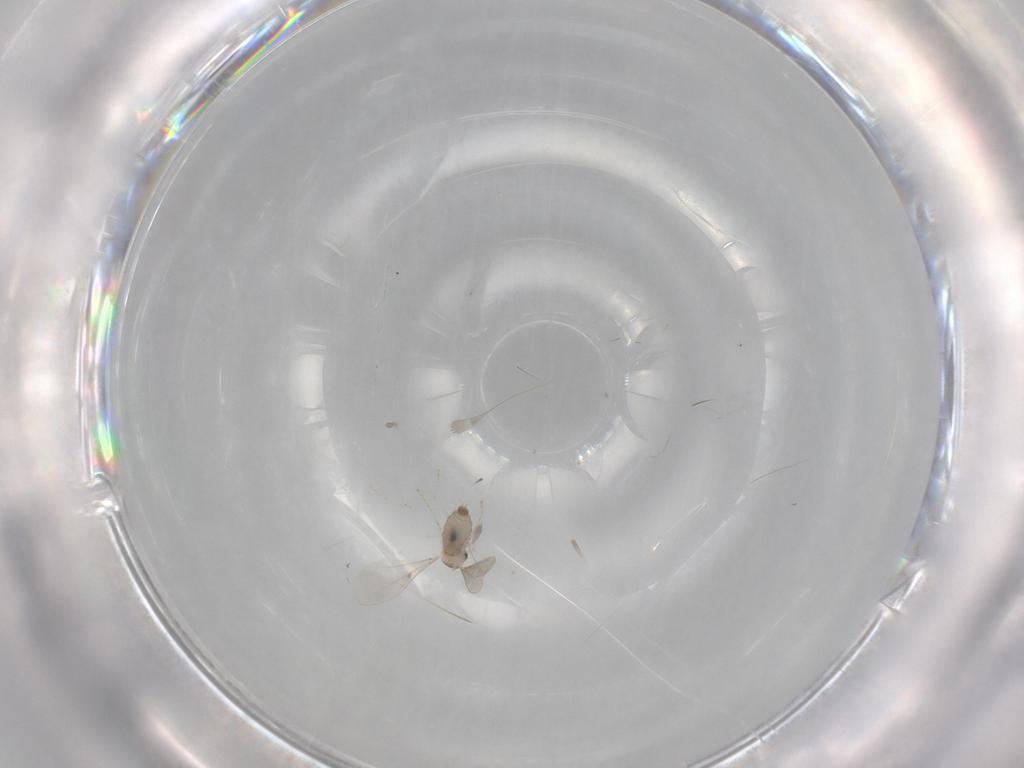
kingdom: Animalia
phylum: Arthropoda
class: Insecta
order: Diptera
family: Cecidomyiidae
